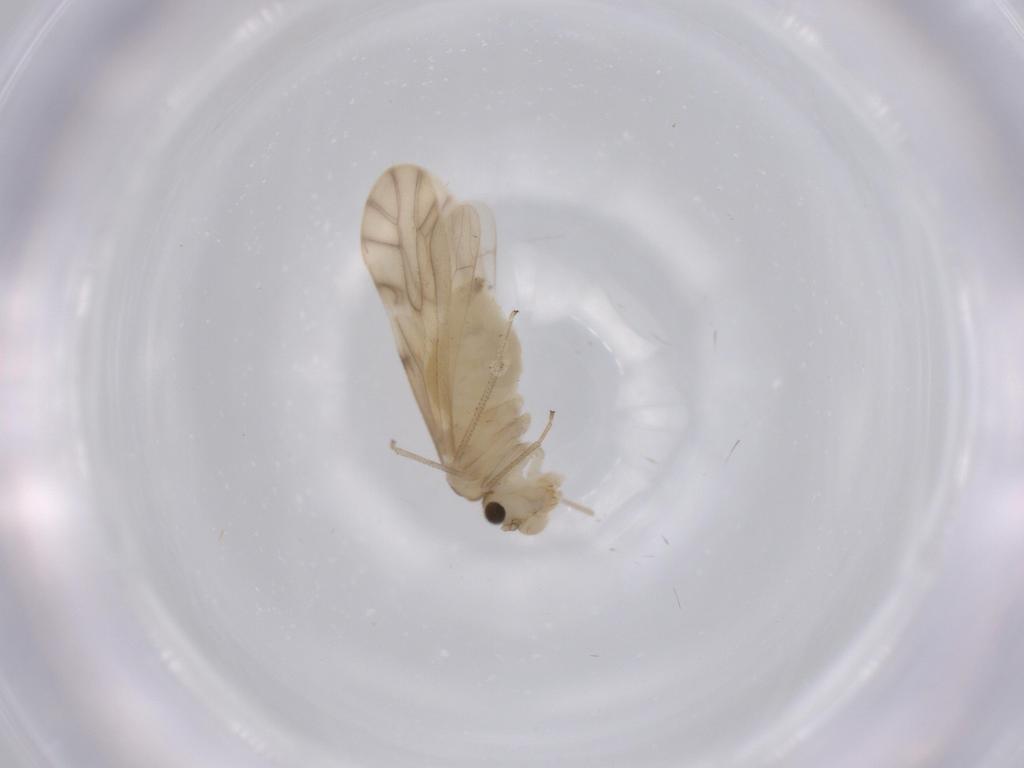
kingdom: Animalia
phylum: Arthropoda
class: Insecta
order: Psocodea
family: Caeciliusidae
